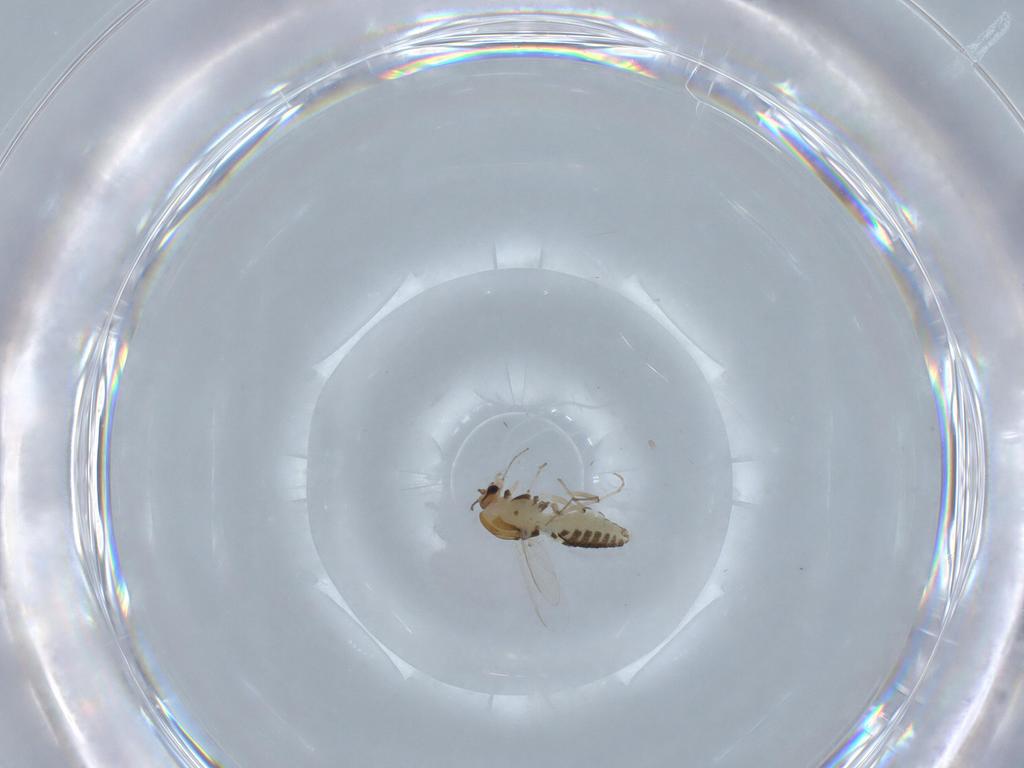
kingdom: Animalia
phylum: Arthropoda
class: Insecta
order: Diptera
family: Chironomidae
